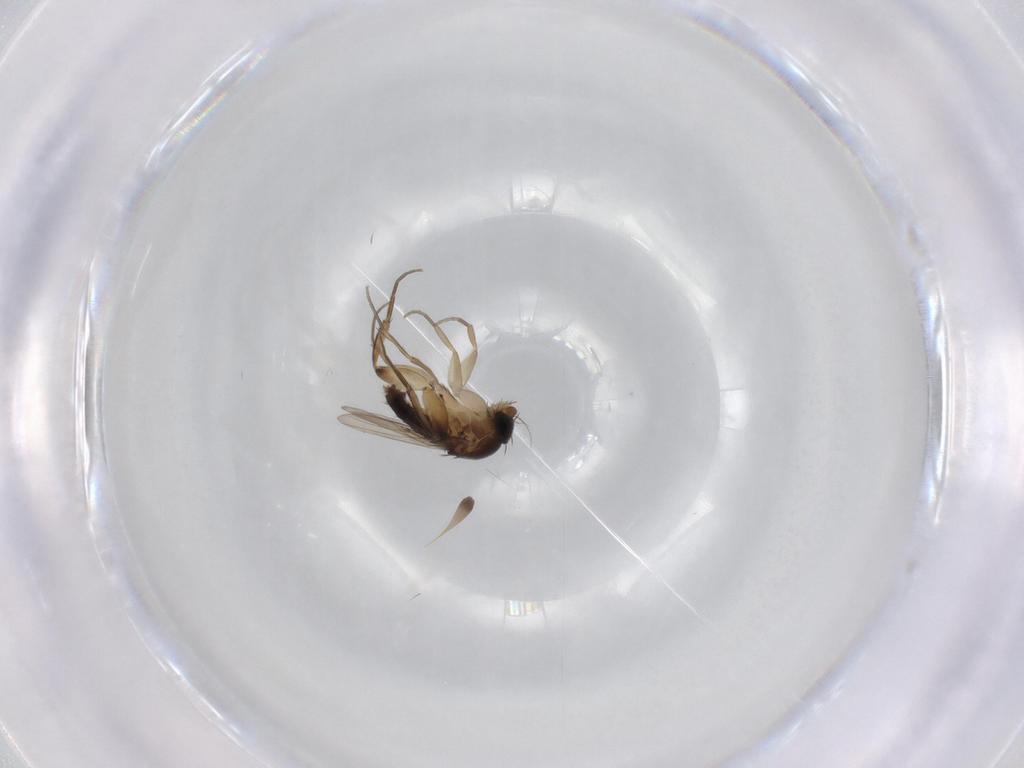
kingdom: Animalia
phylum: Arthropoda
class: Insecta
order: Diptera
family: Phoridae
